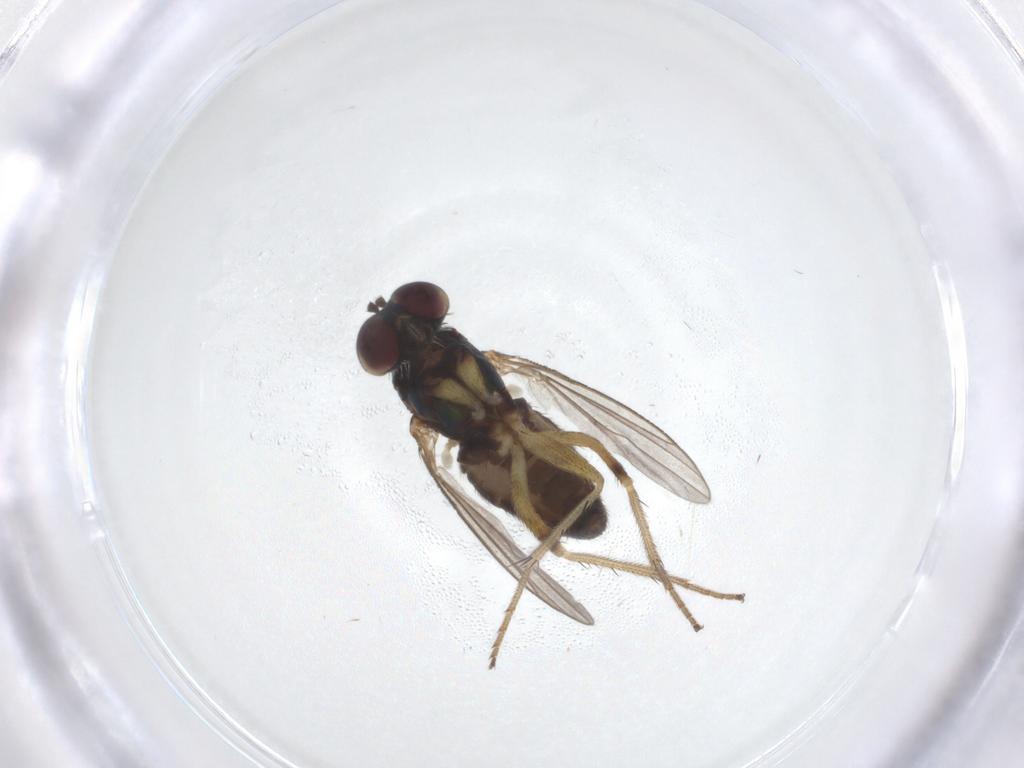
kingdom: Animalia
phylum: Arthropoda
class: Insecta
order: Diptera
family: Dolichopodidae
